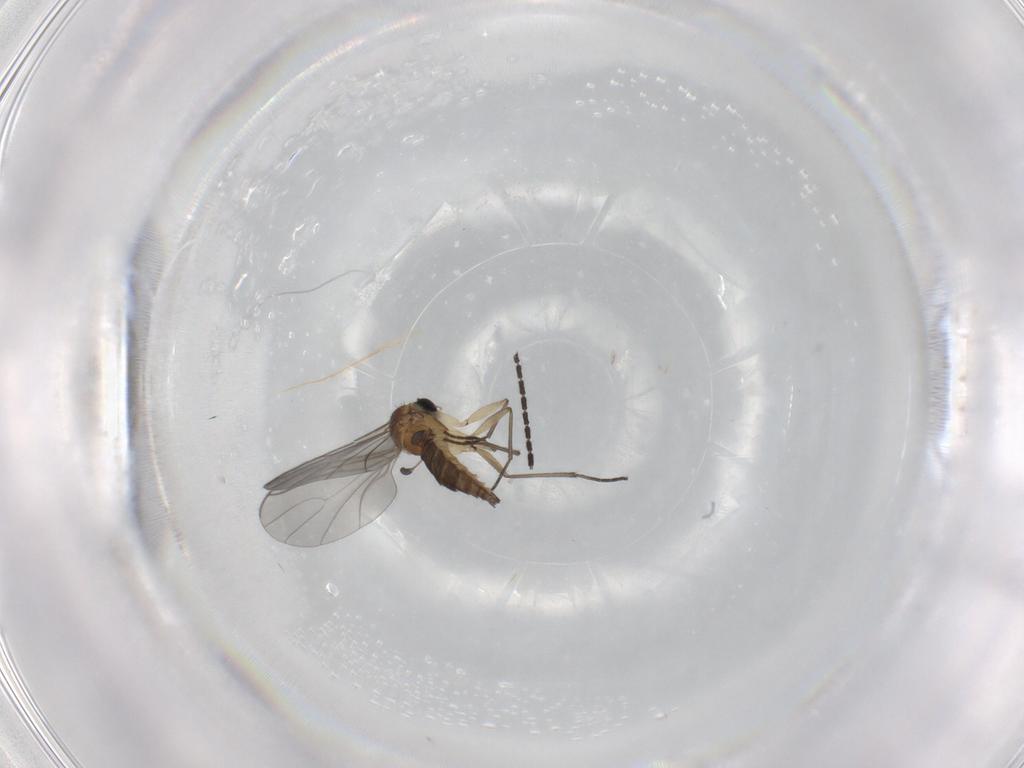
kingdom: Animalia
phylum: Arthropoda
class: Insecta
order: Diptera
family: Sciaridae
